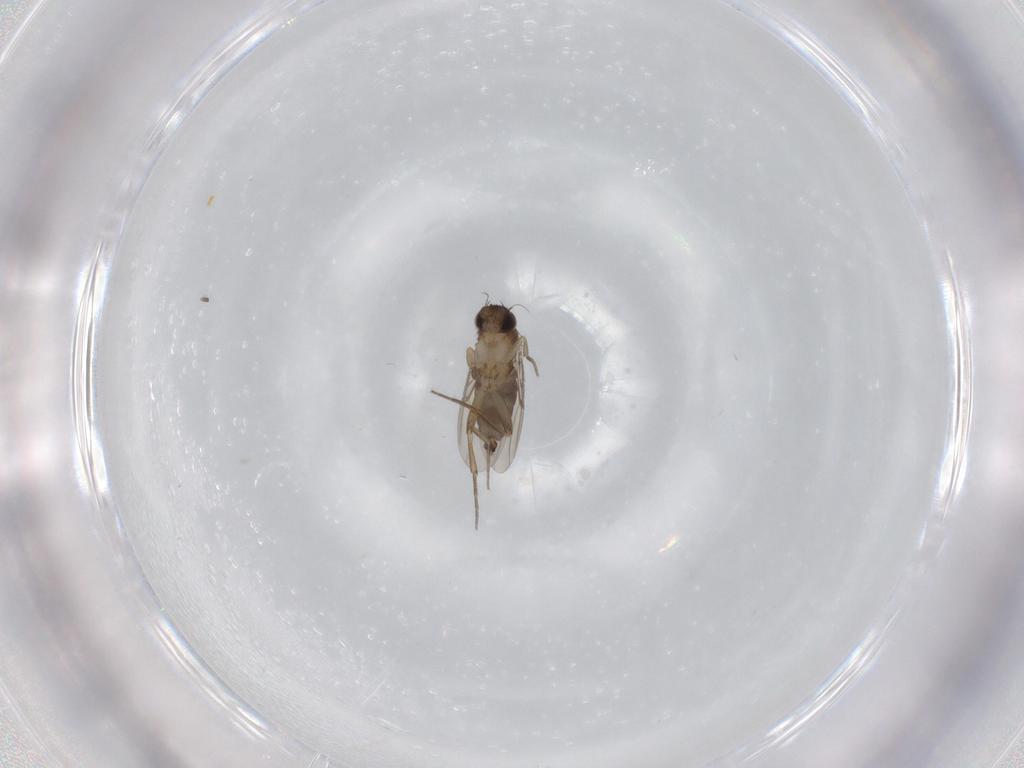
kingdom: Animalia
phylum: Arthropoda
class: Insecta
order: Diptera
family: Phoridae
